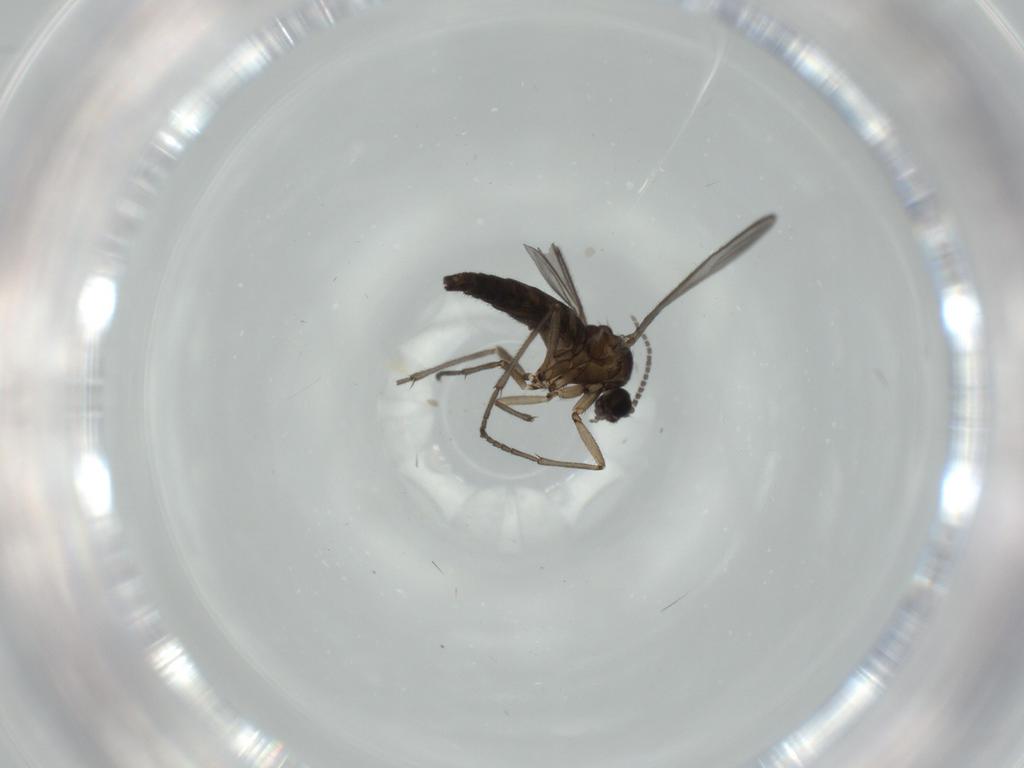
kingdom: Animalia
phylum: Arthropoda
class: Insecta
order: Diptera
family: Sciaridae
